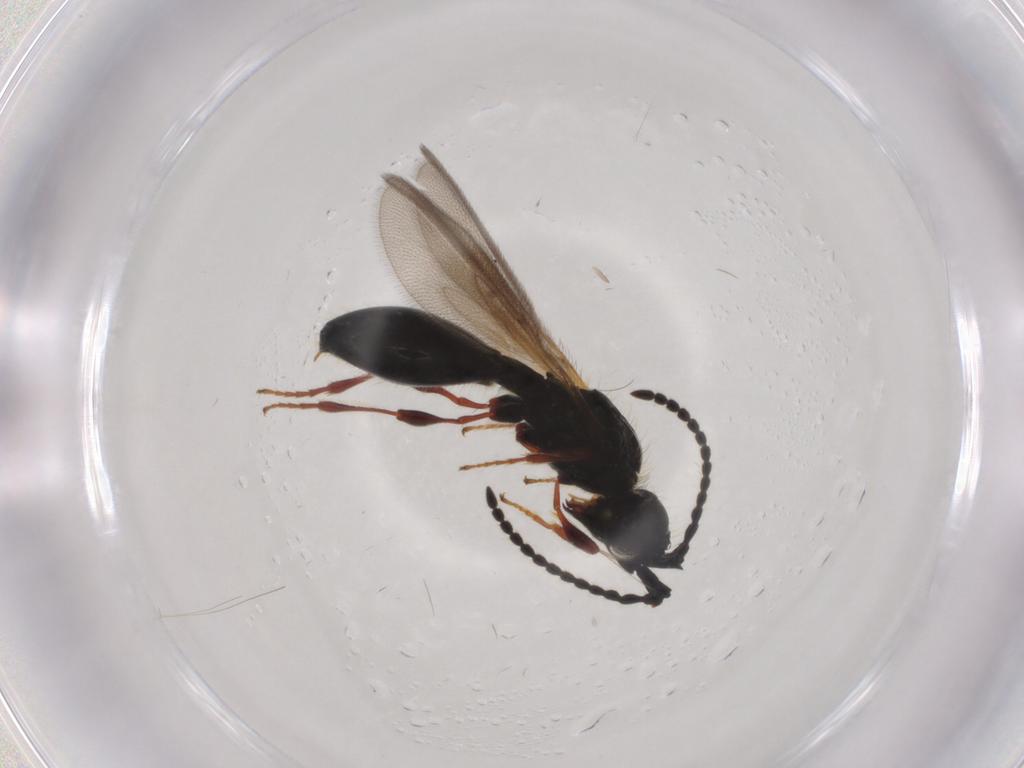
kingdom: Animalia
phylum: Arthropoda
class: Insecta
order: Hymenoptera
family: Diapriidae
